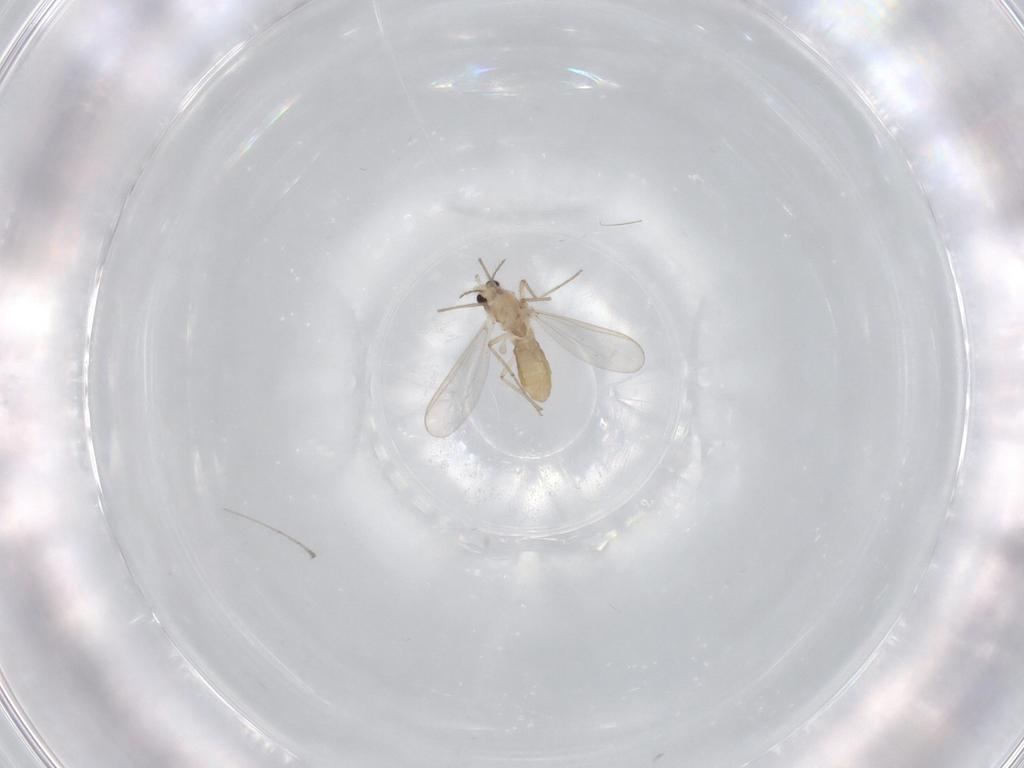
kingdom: Animalia
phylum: Arthropoda
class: Insecta
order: Diptera
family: Chironomidae
